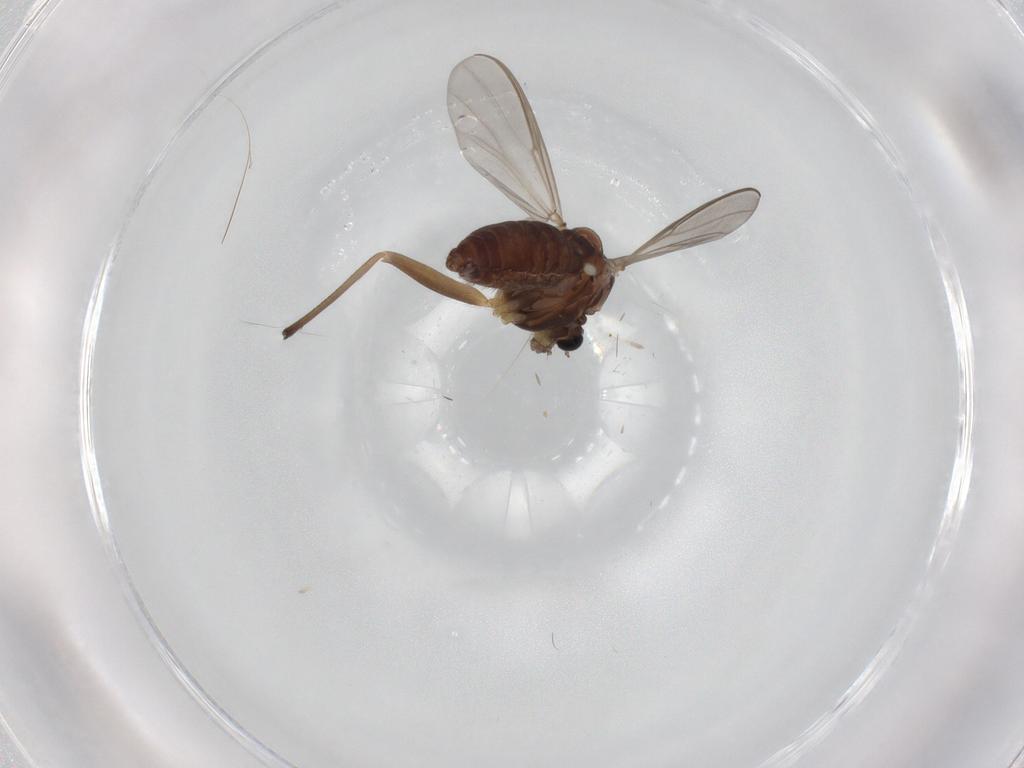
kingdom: Animalia
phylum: Arthropoda
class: Insecta
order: Diptera
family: Chironomidae
